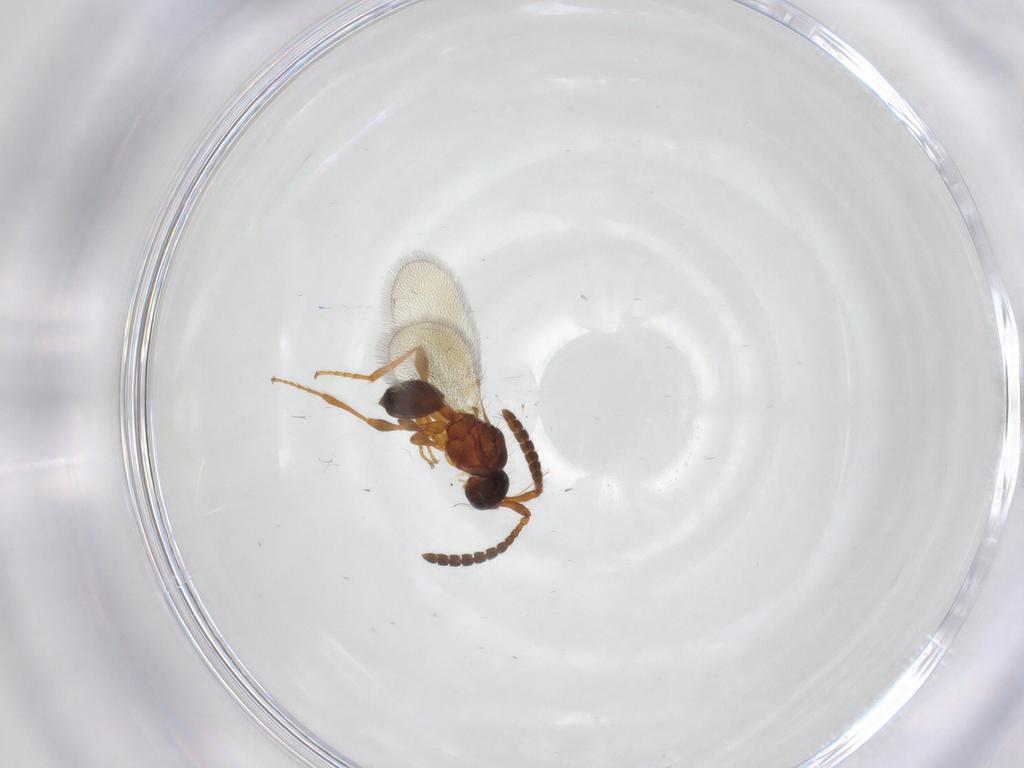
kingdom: Animalia
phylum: Arthropoda
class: Insecta
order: Hymenoptera
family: Diapriidae
